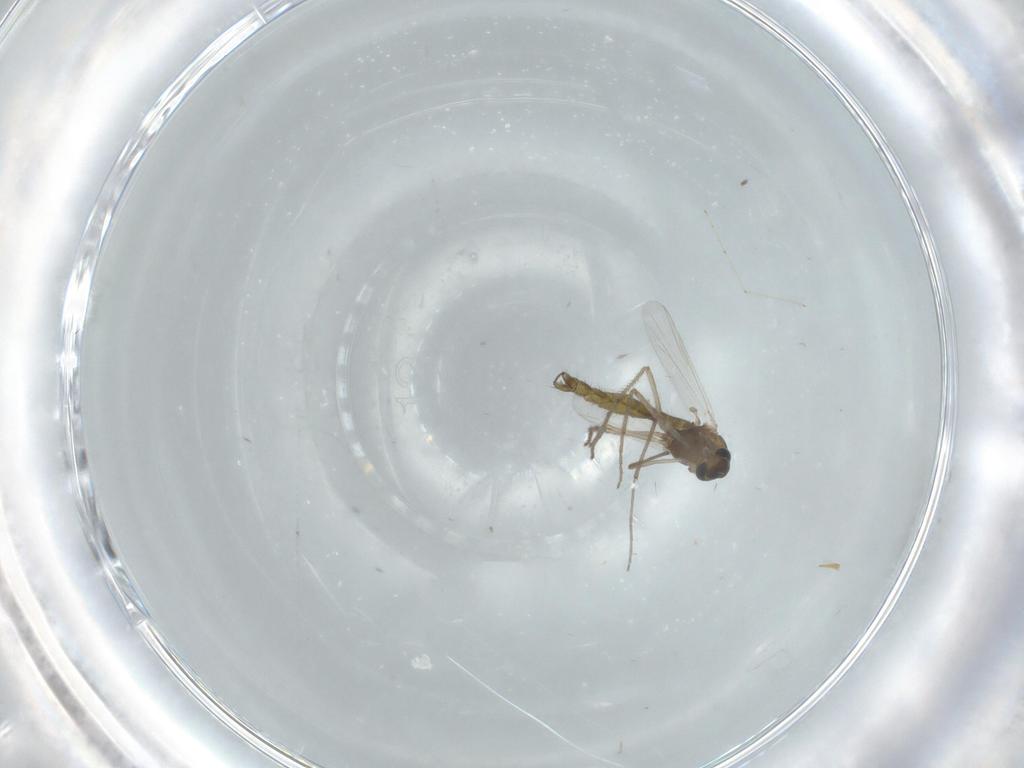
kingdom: Animalia
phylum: Arthropoda
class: Insecta
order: Diptera
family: Chironomidae
